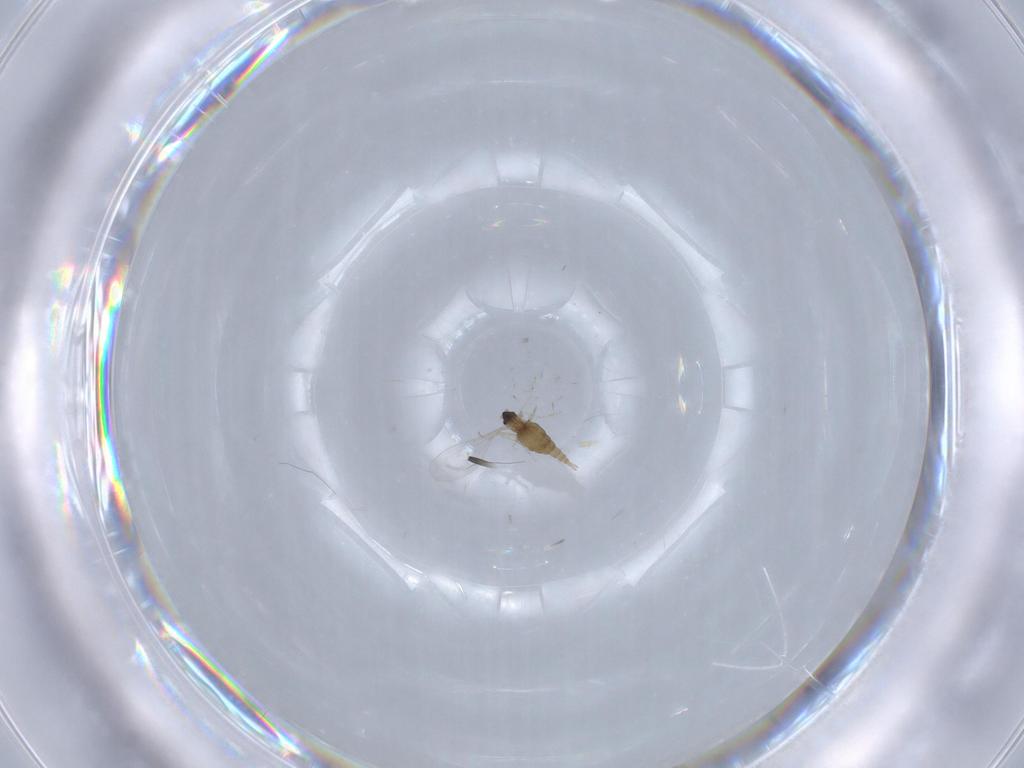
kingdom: Animalia
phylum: Arthropoda
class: Insecta
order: Diptera
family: Cecidomyiidae
